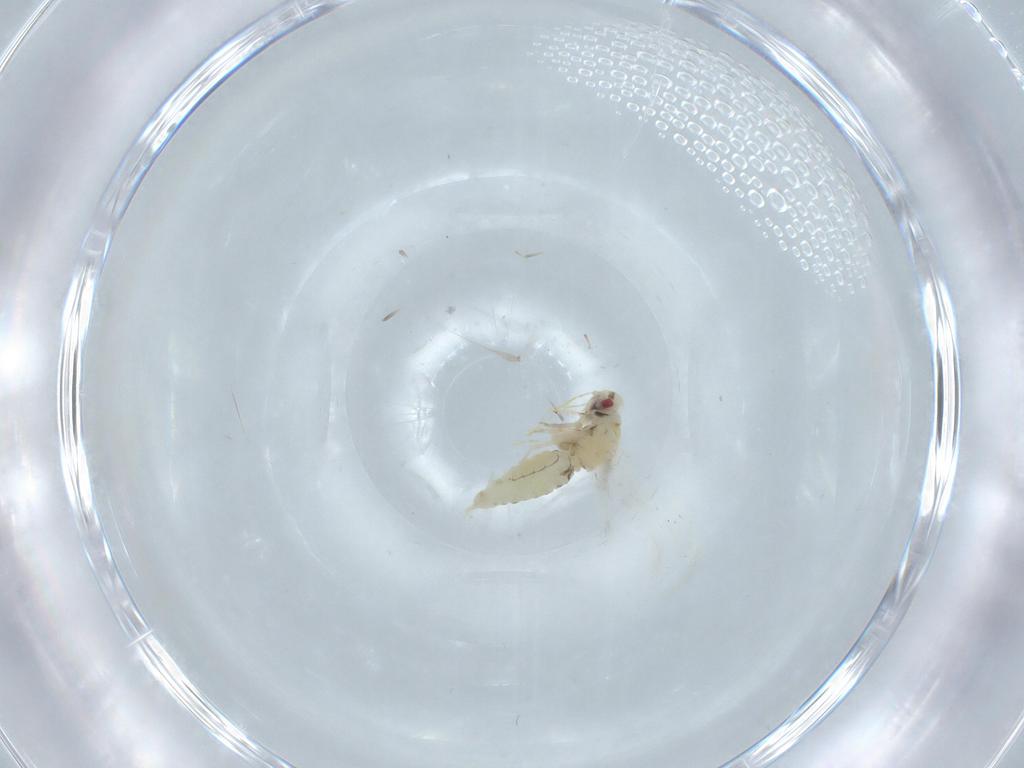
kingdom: Animalia
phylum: Arthropoda
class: Insecta
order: Hemiptera
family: Aleyrodidae
